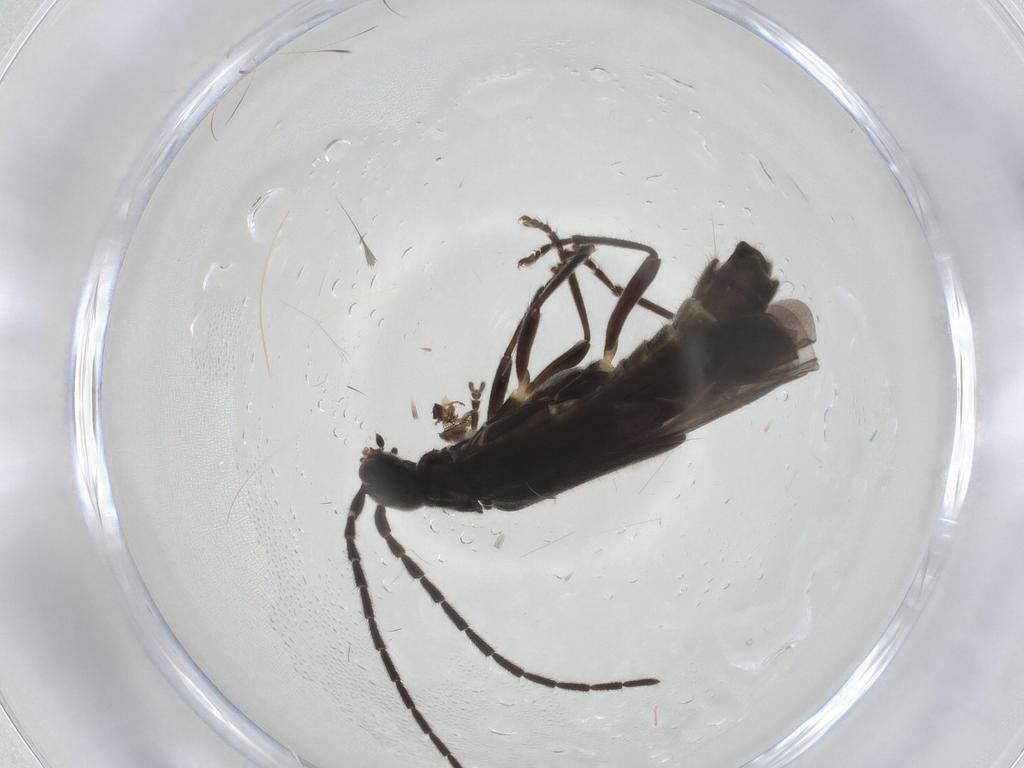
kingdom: Animalia
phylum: Arthropoda
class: Insecta
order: Coleoptera
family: Cantharidae
